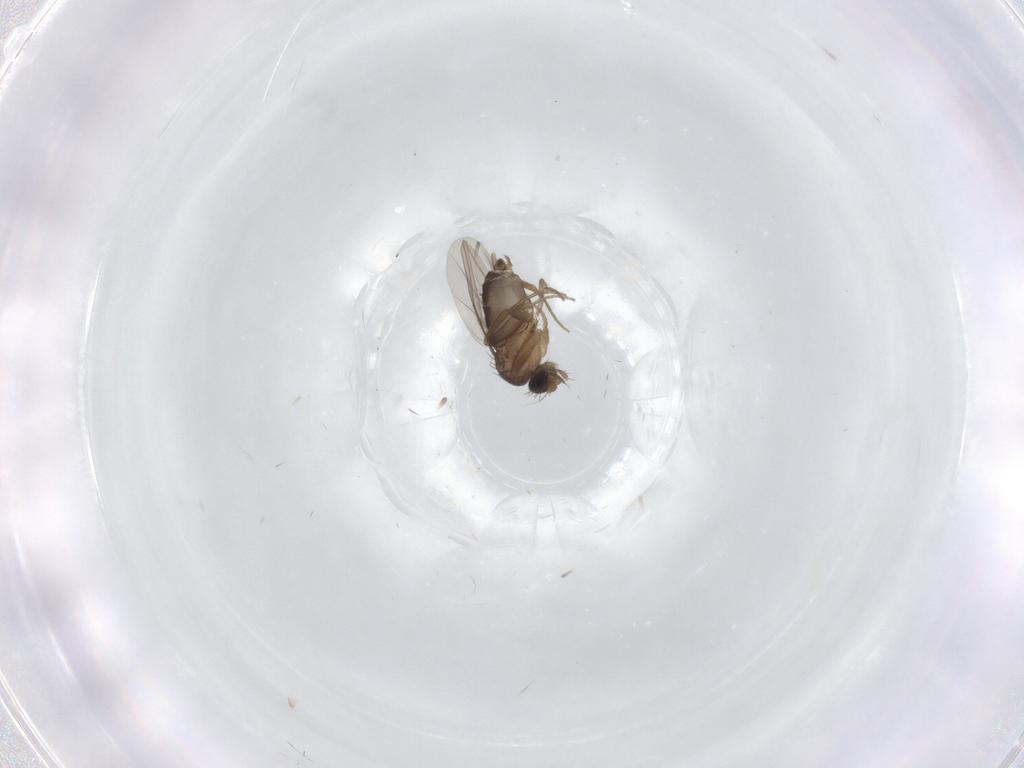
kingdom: Animalia
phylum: Arthropoda
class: Insecta
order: Diptera
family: Phoridae
